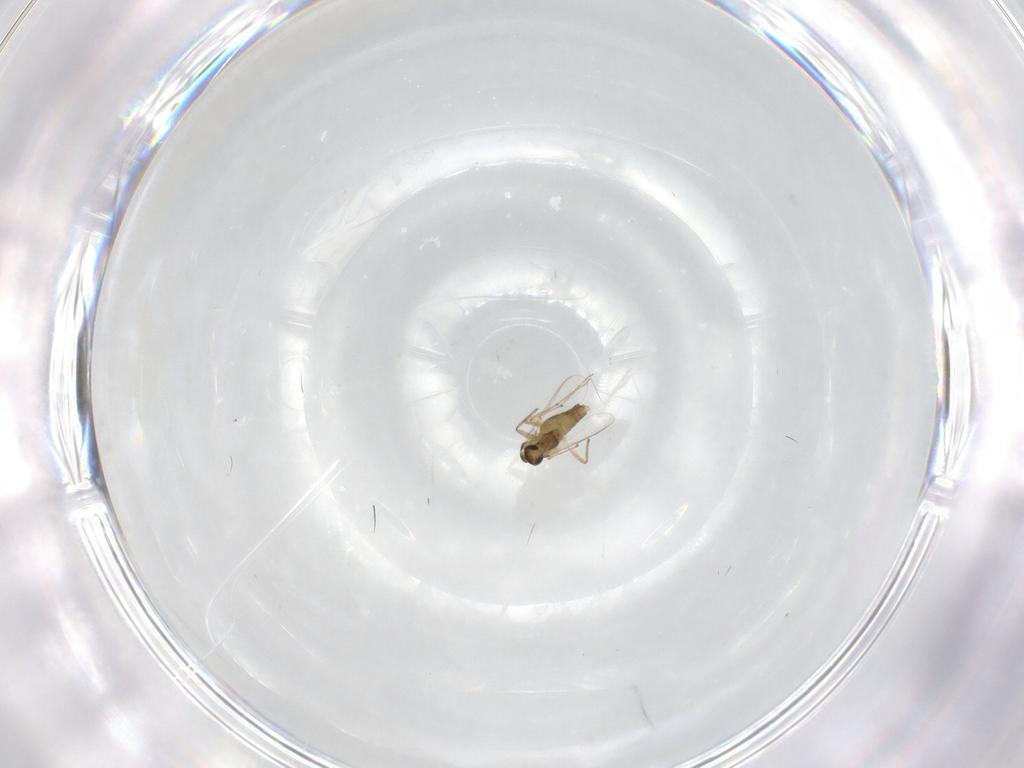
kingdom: Animalia
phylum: Arthropoda
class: Insecta
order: Diptera
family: Chironomidae
